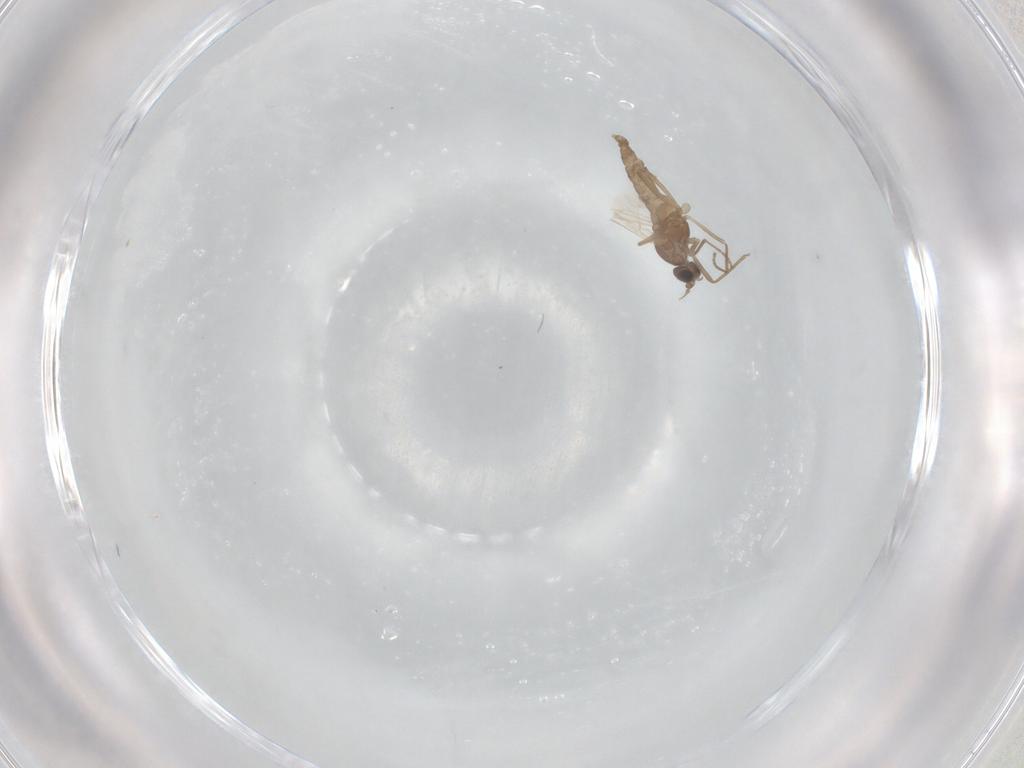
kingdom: Animalia
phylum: Arthropoda
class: Insecta
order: Diptera
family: Cecidomyiidae
